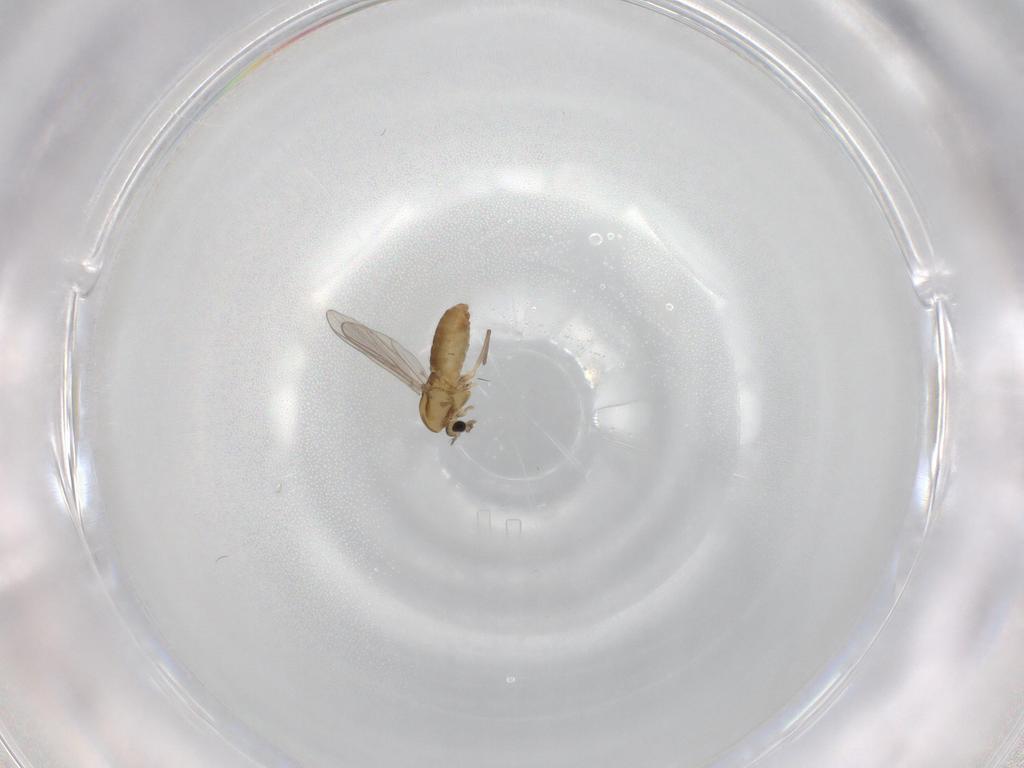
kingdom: Animalia
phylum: Arthropoda
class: Insecta
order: Diptera
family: Chironomidae
